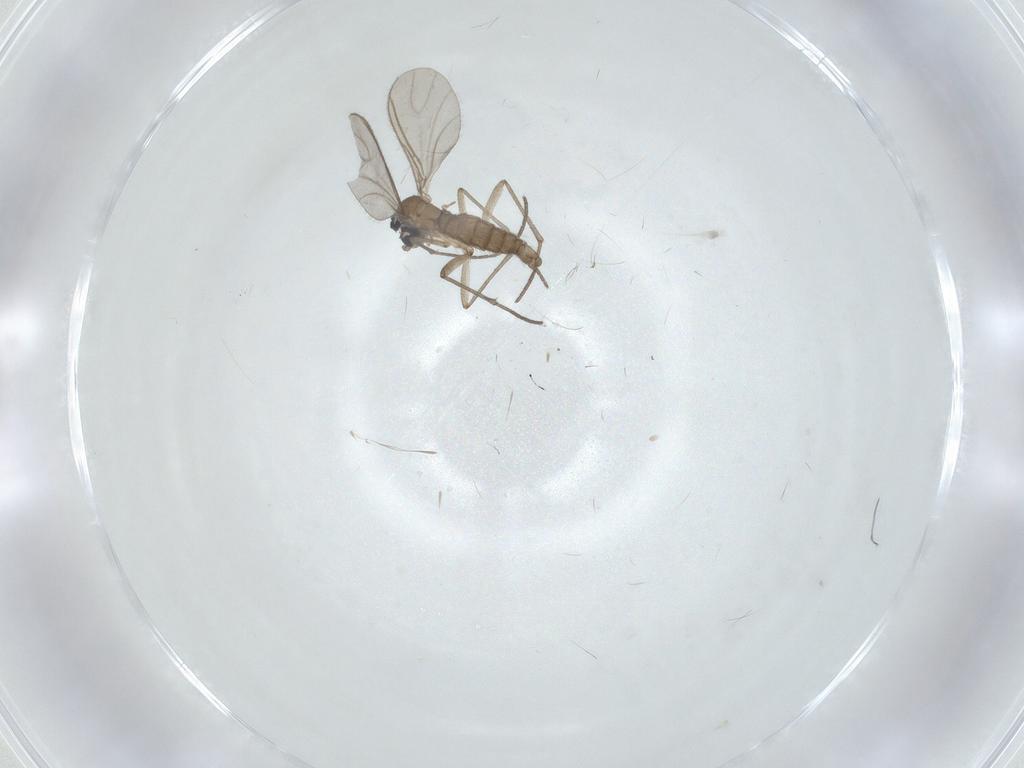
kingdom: Animalia
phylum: Arthropoda
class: Insecta
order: Diptera
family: Sciaridae
